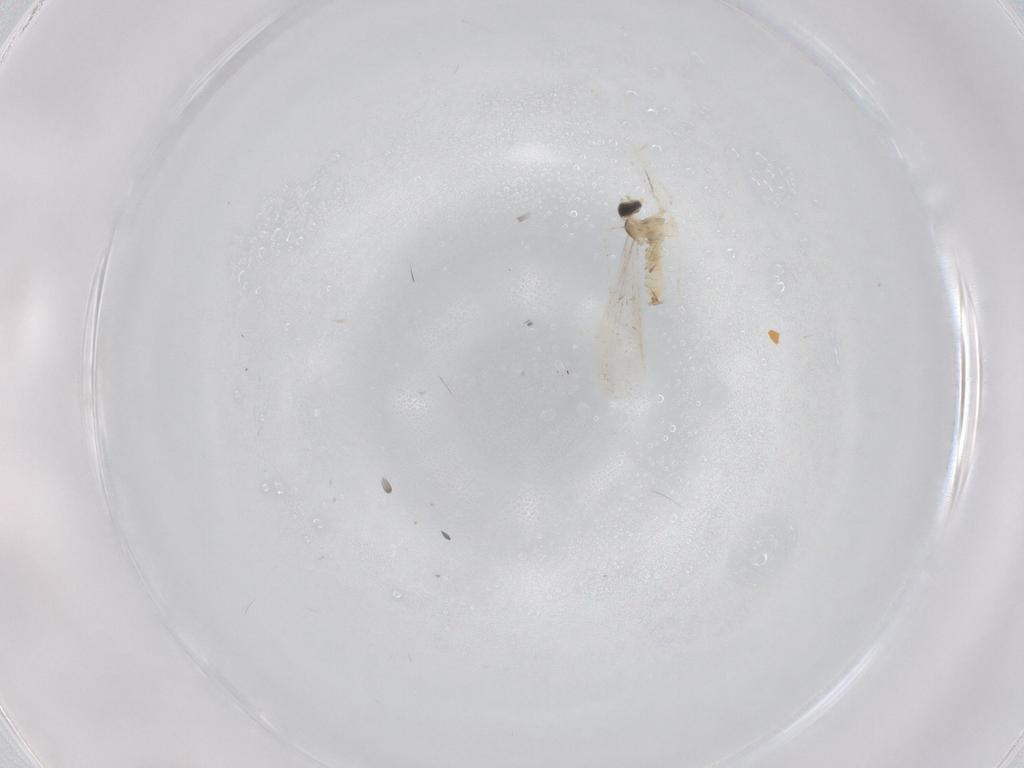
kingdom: Animalia
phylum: Arthropoda
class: Insecta
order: Diptera
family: Cecidomyiidae
